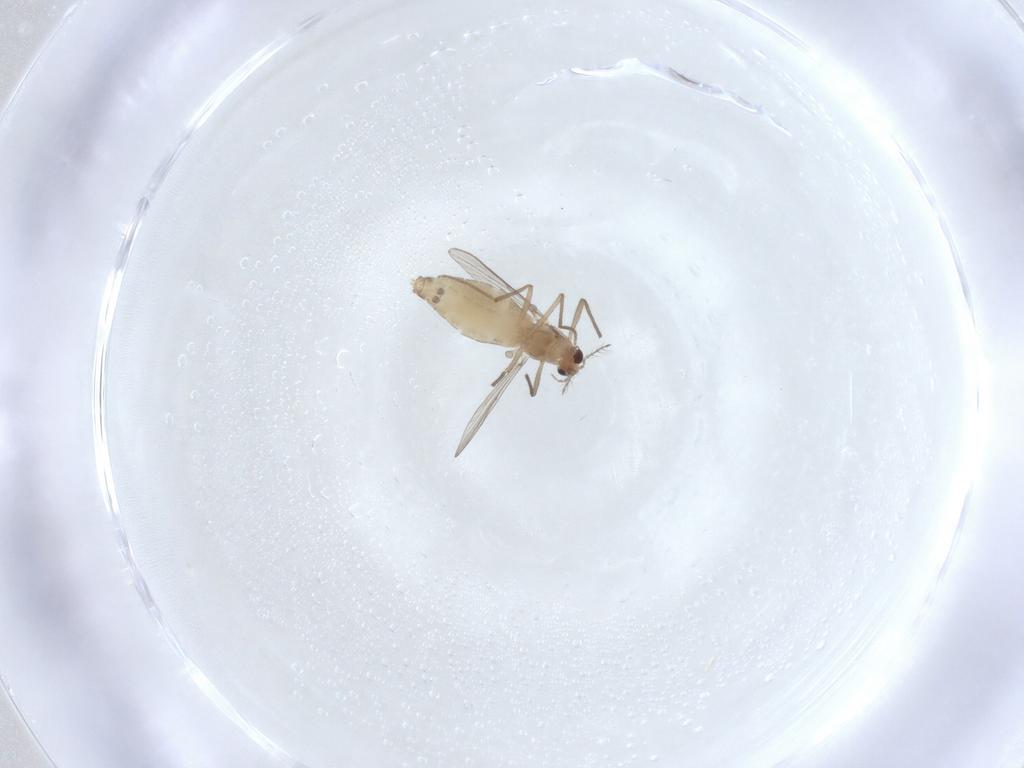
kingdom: Animalia
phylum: Arthropoda
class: Insecta
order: Diptera
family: Chironomidae
